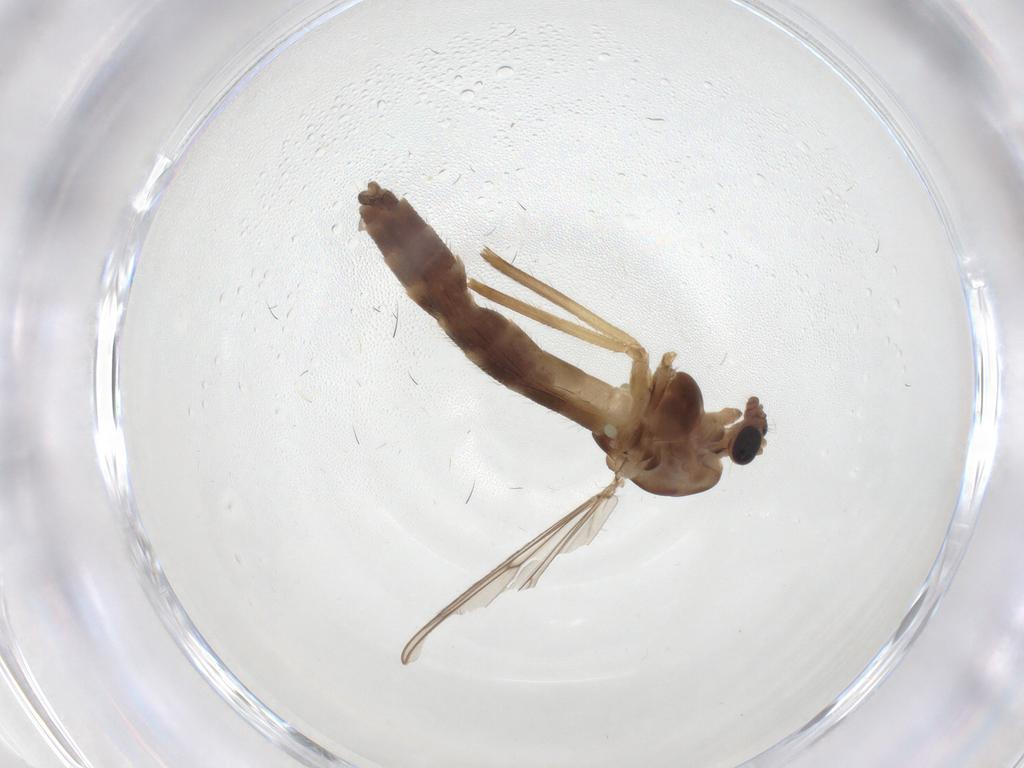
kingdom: Animalia
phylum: Arthropoda
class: Insecta
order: Diptera
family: Chironomidae
